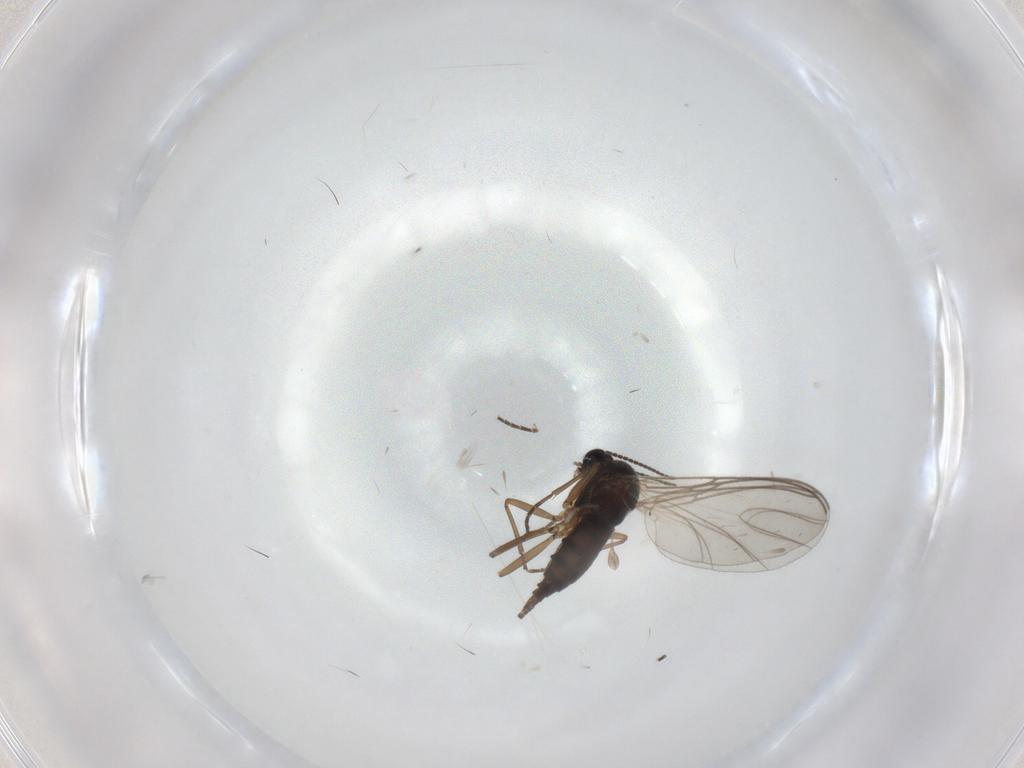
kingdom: Animalia
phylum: Arthropoda
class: Insecta
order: Diptera
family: Sciaridae
